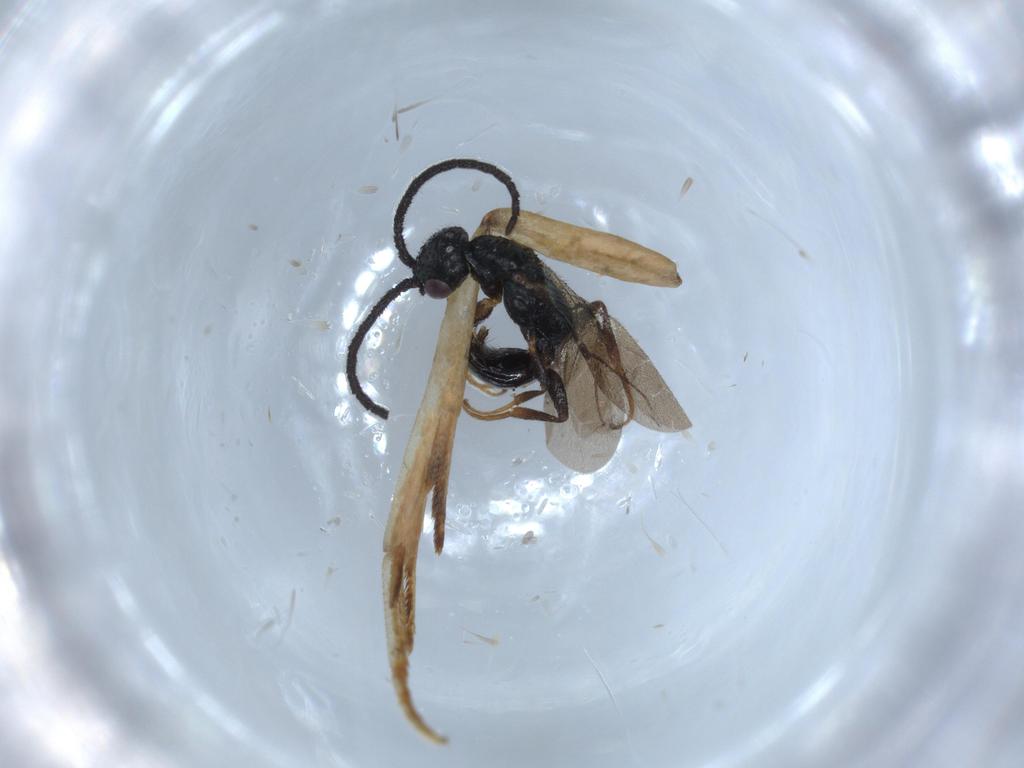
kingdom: Animalia
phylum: Arthropoda
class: Insecta
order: Hymenoptera
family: Bethylidae
